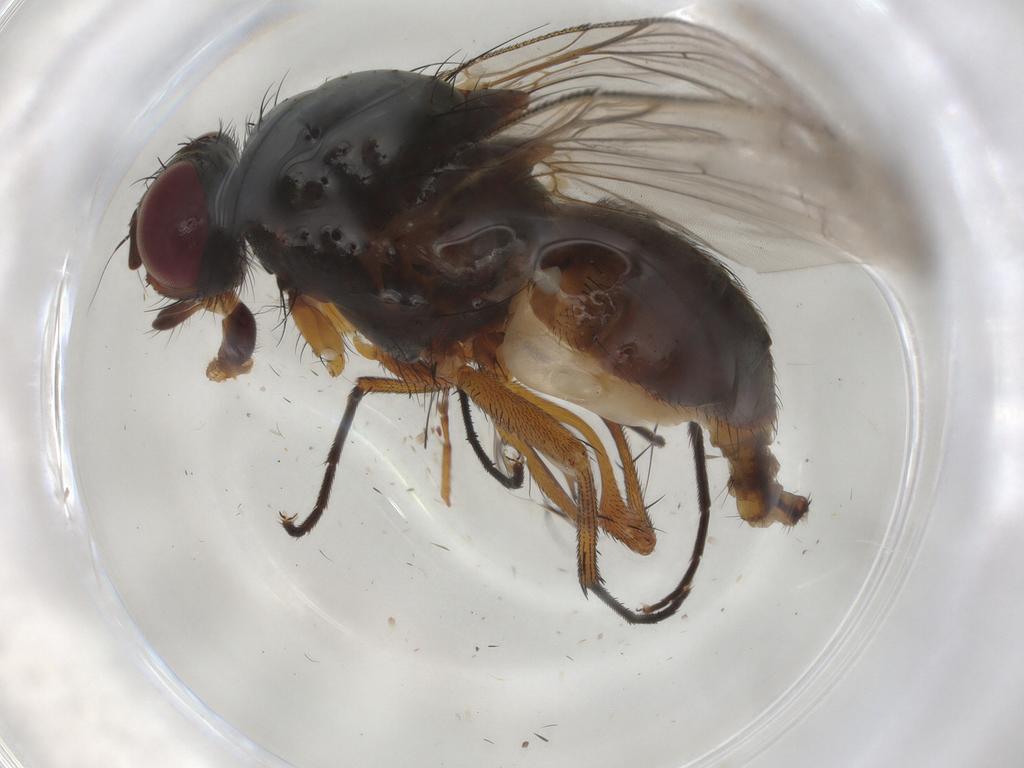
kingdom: Animalia
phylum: Arthropoda
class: Insecta
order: Diptera
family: Anthomyiidae
